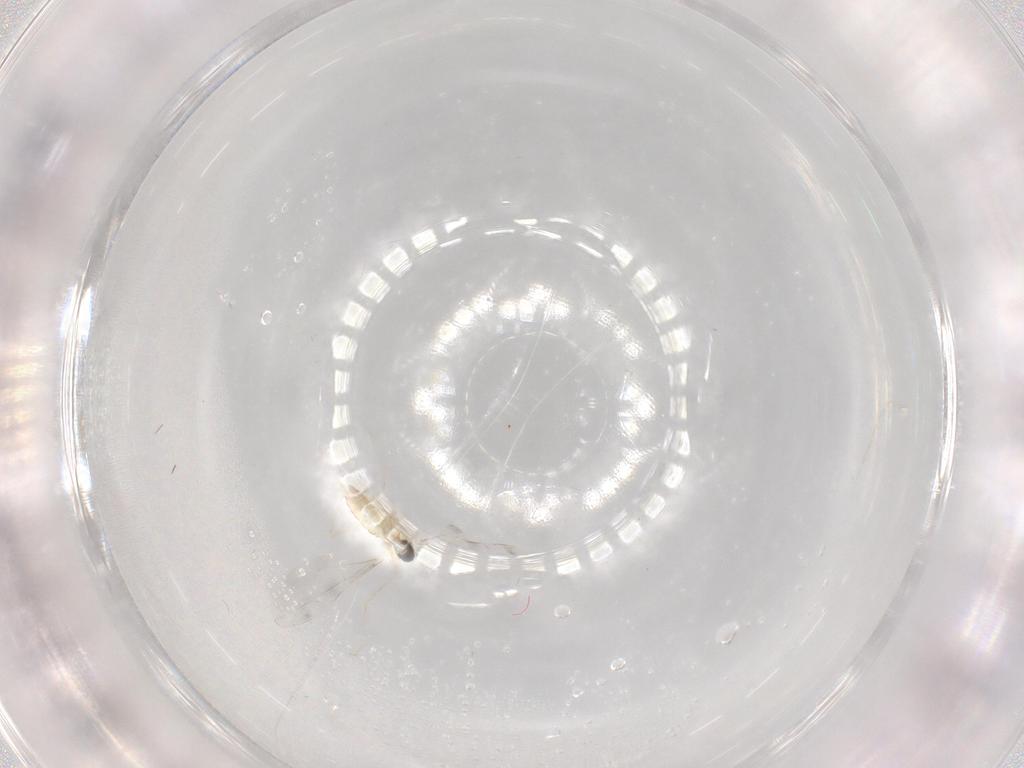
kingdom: Animalia
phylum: Arthropoda
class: Insecta
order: Diptera
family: Cecidomyiidae
